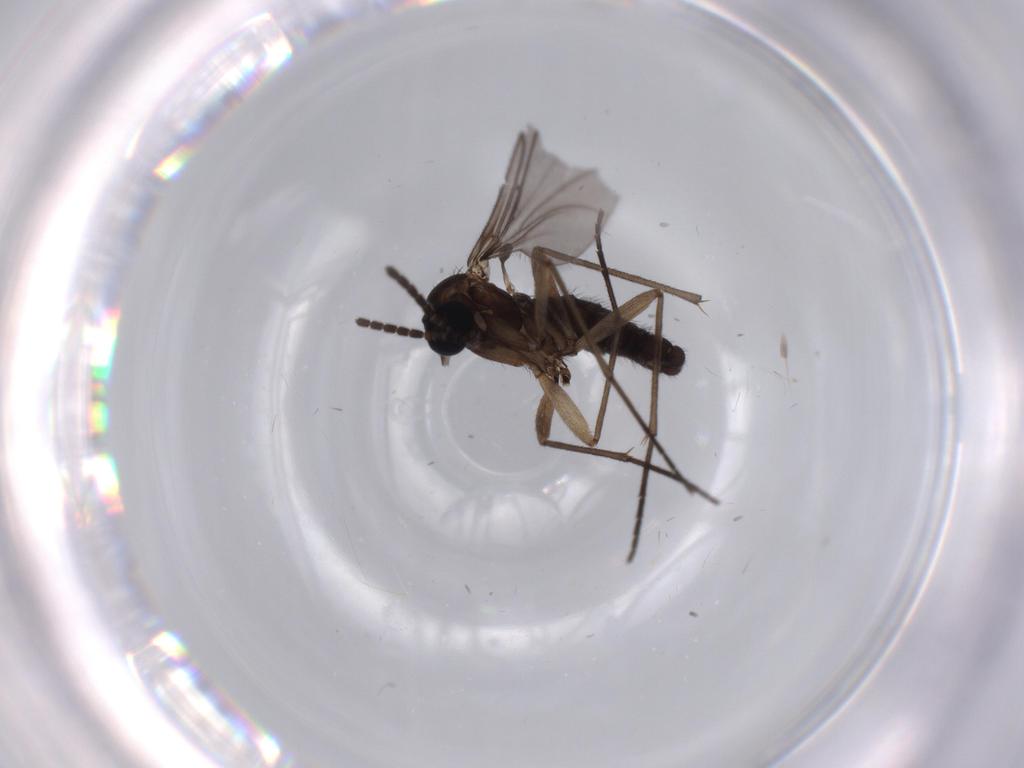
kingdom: Animalia
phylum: Arthropoda
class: Insecta
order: Diptera
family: Sciaridae
